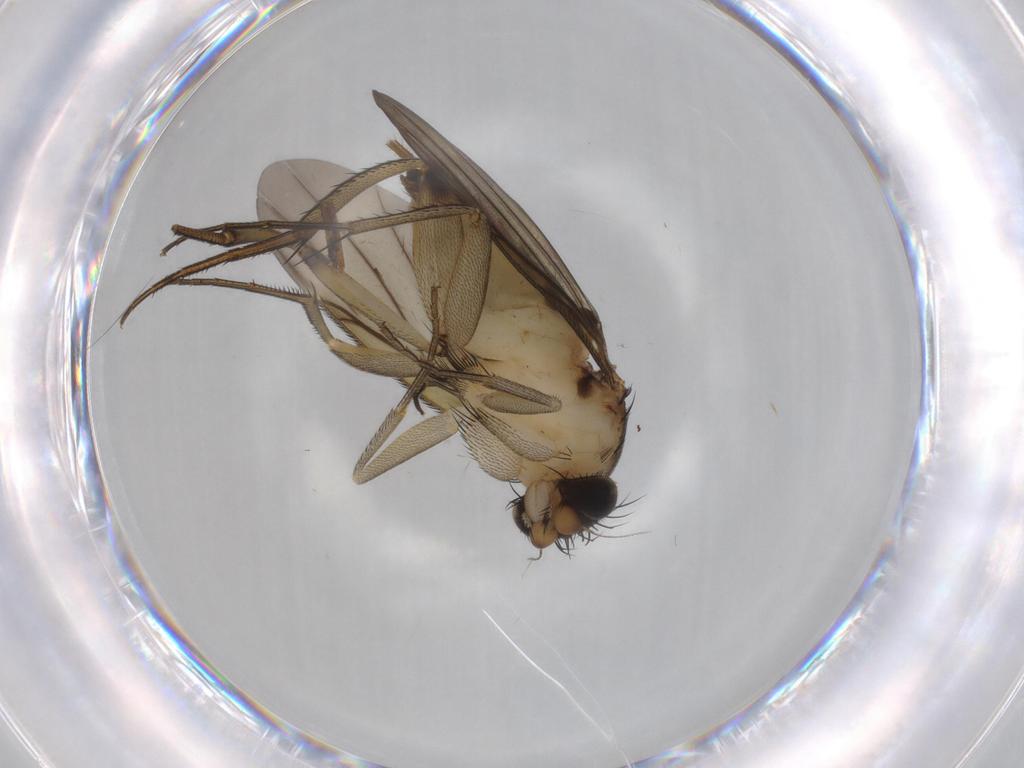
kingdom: Animalia
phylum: Arthropoda
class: Insecta
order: Diptera
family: Phoridae
